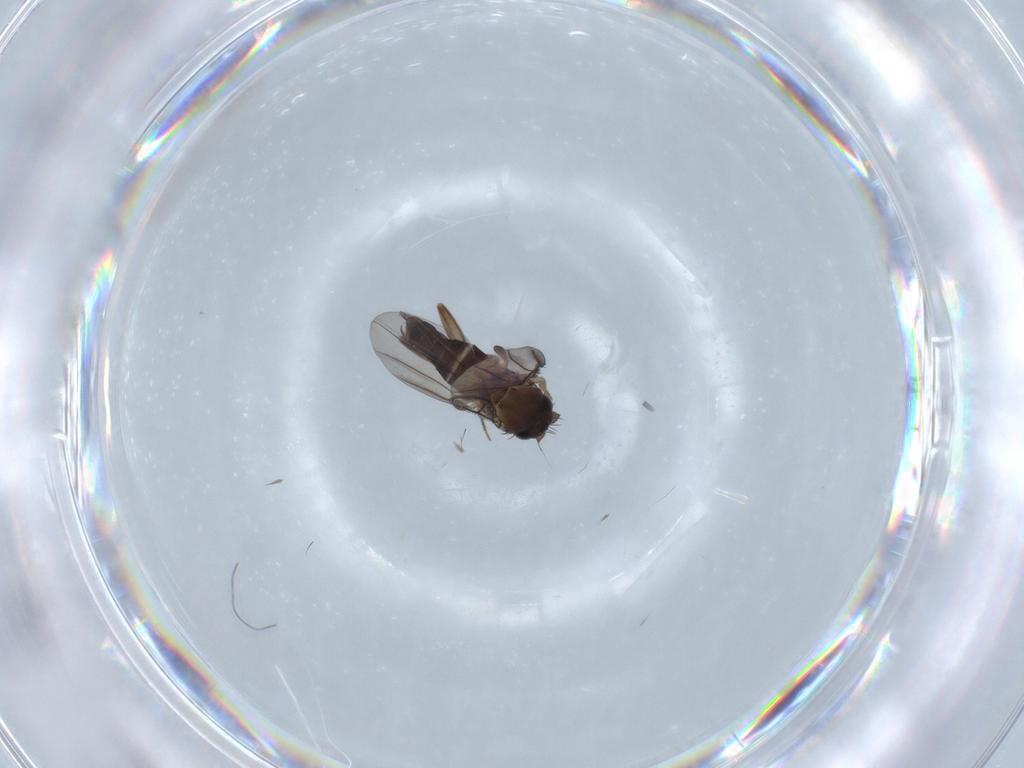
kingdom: Animalia
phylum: Arthropoda
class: Insecta
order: Diptera
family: Phoridae
